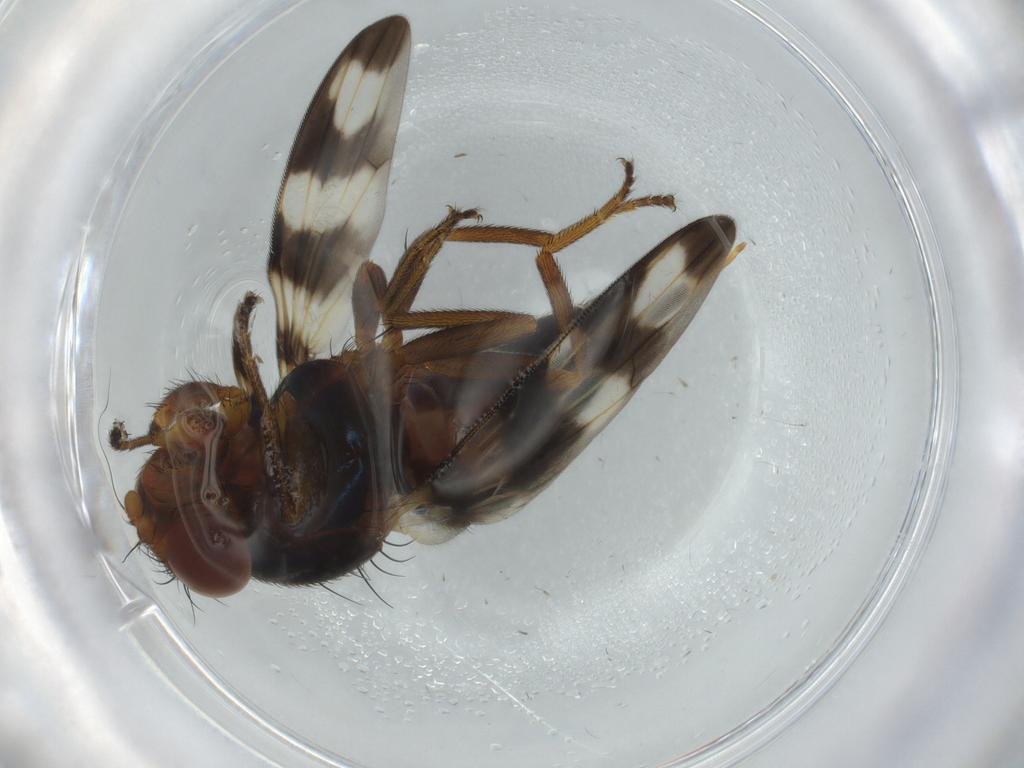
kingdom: Animalia
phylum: Arthropoda
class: Insecta
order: Diptera
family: Ulidiidae
